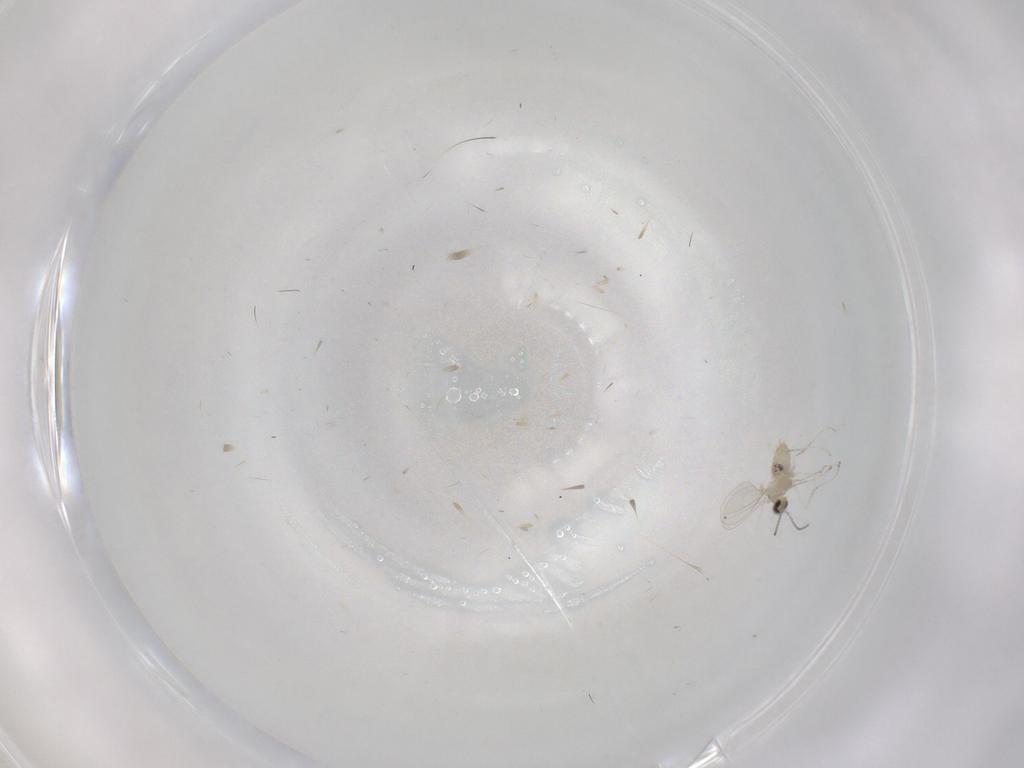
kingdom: Animalia
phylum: Arthropoda
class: Insecta
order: Diptera
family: Cecidomyiidae
